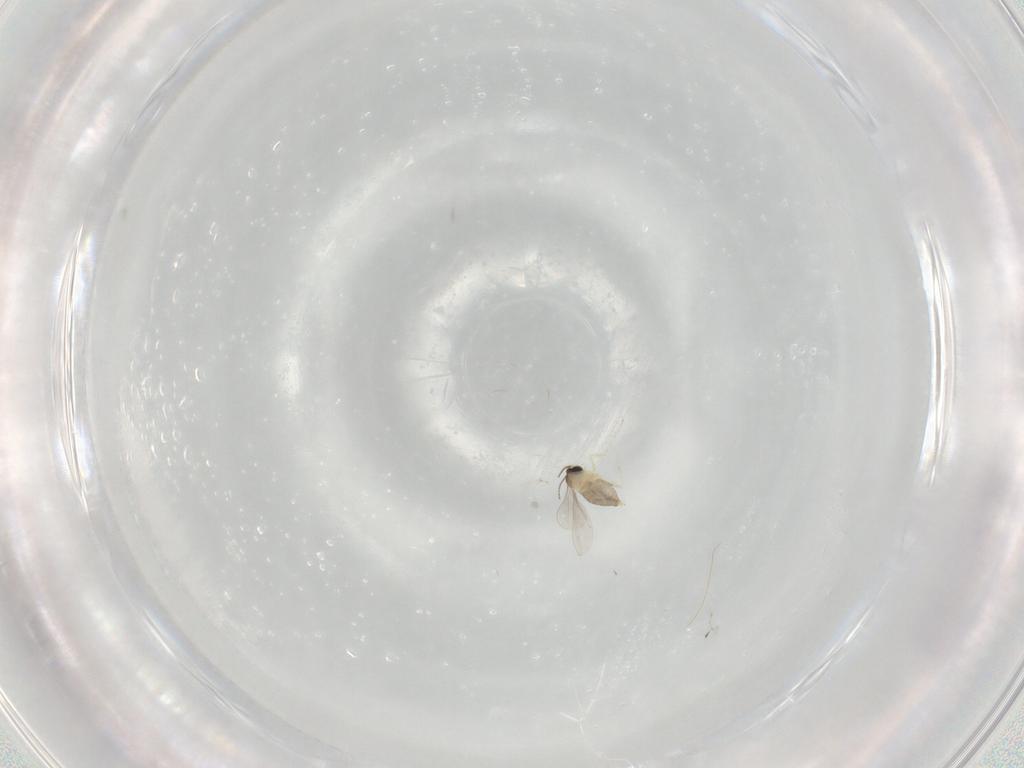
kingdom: Animalia
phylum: Arthropoda
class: Insecta
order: Diptera
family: Cecidomyiidae
